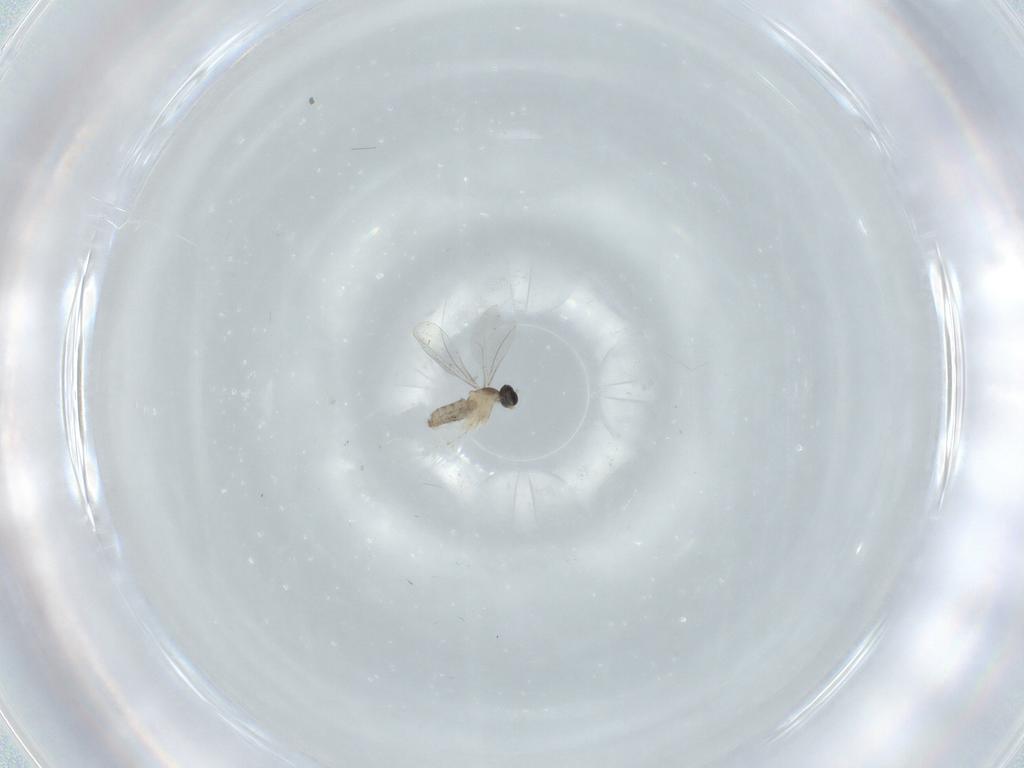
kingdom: Animalia
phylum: Arthropoda
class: Insecta
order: Diptera
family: Cecidomyiidae
